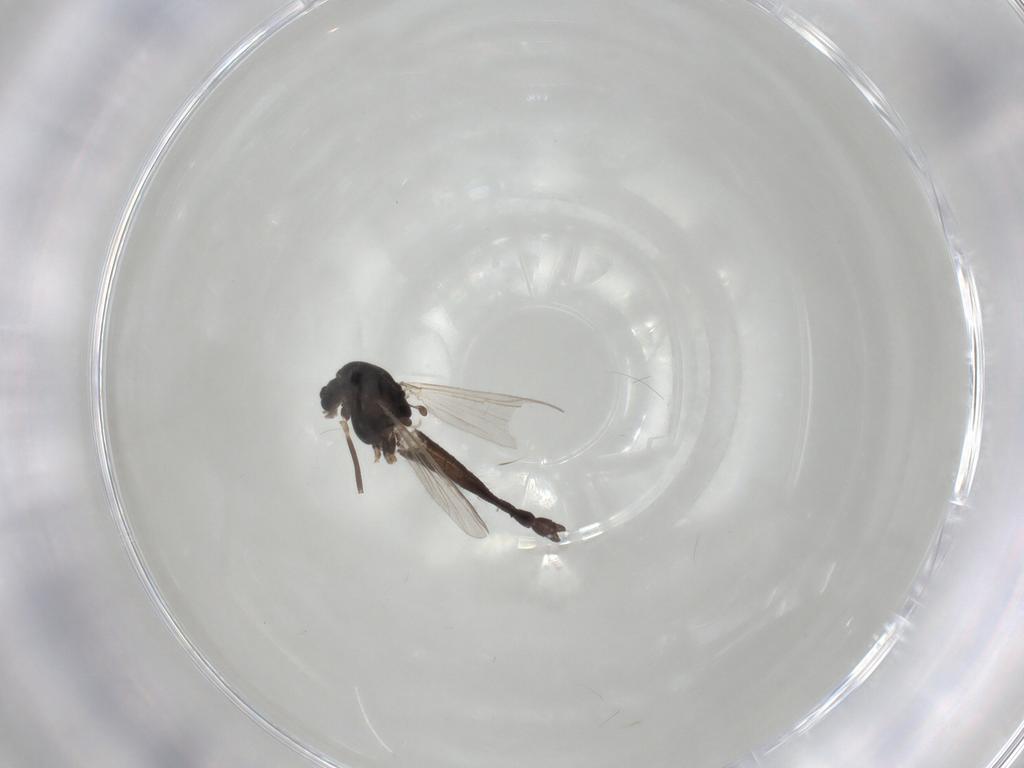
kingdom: Animalia
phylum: Arthropoda
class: Insecta
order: Diptera
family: Chironomidae
